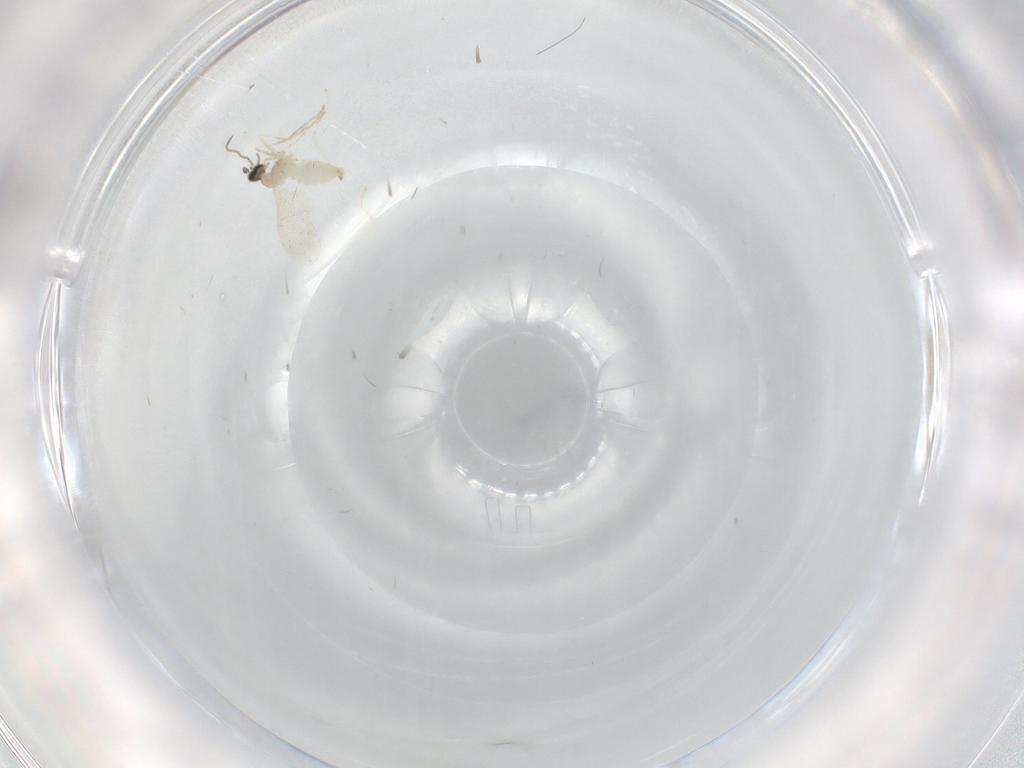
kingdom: Animalia
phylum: Arthropoda
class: Insecta
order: Diptera
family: Cecidomyiidae
